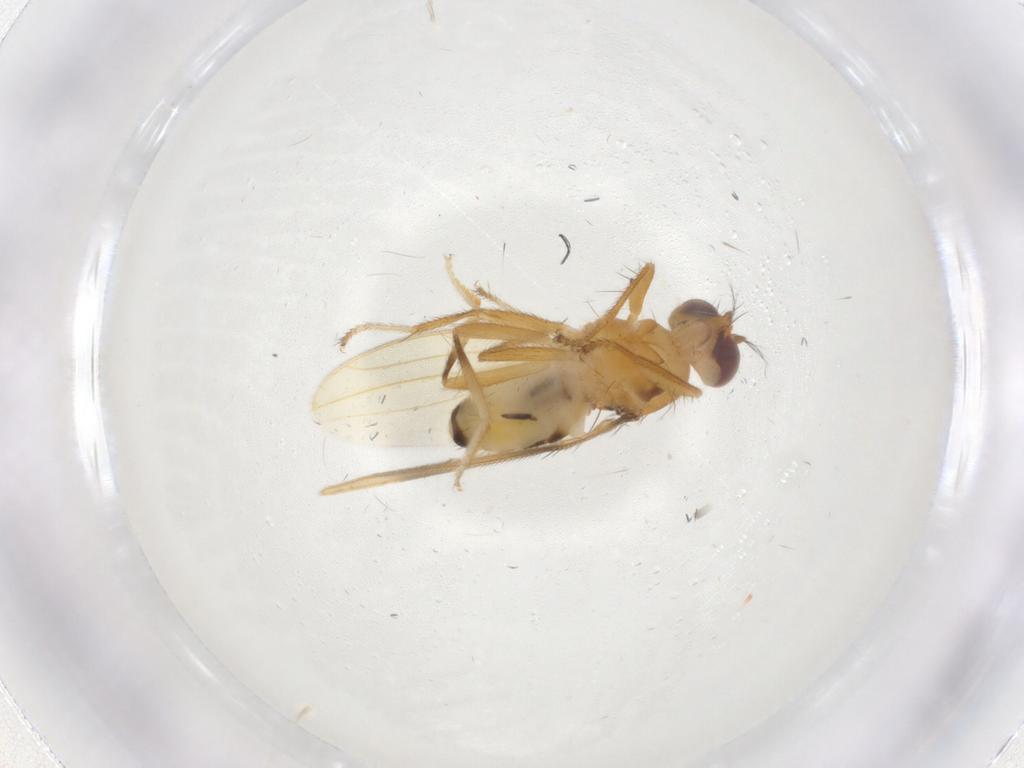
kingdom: Animalia
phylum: Arthropoda
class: Insecta
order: Diptera
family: Periscelididae
